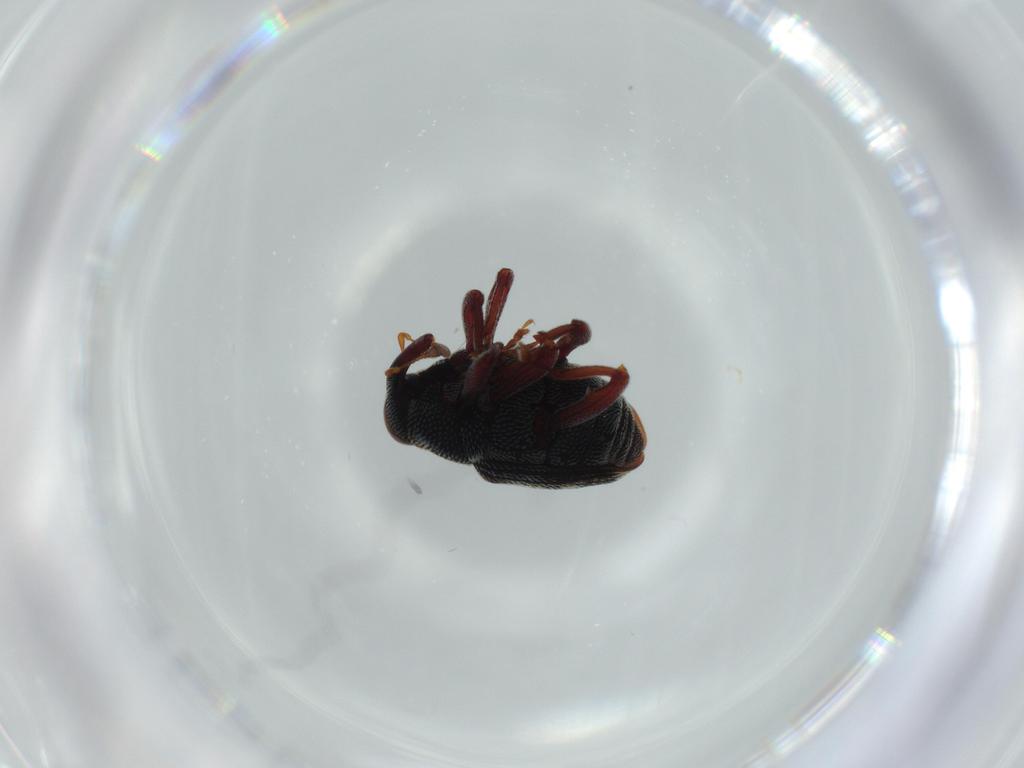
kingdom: Animalia
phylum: Arthropoda
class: Insecta
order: Coleoptera
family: Curculionidae
